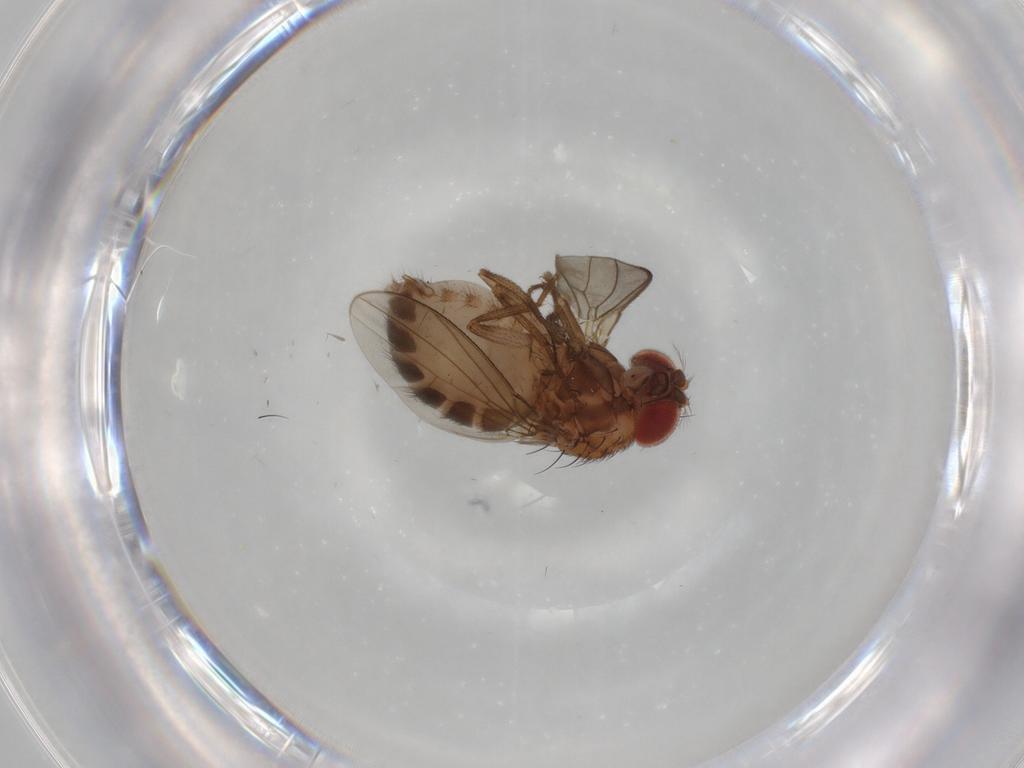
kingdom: Animalia
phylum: Arthropoda
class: Insecta
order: Diptera
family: Drosophilidae
